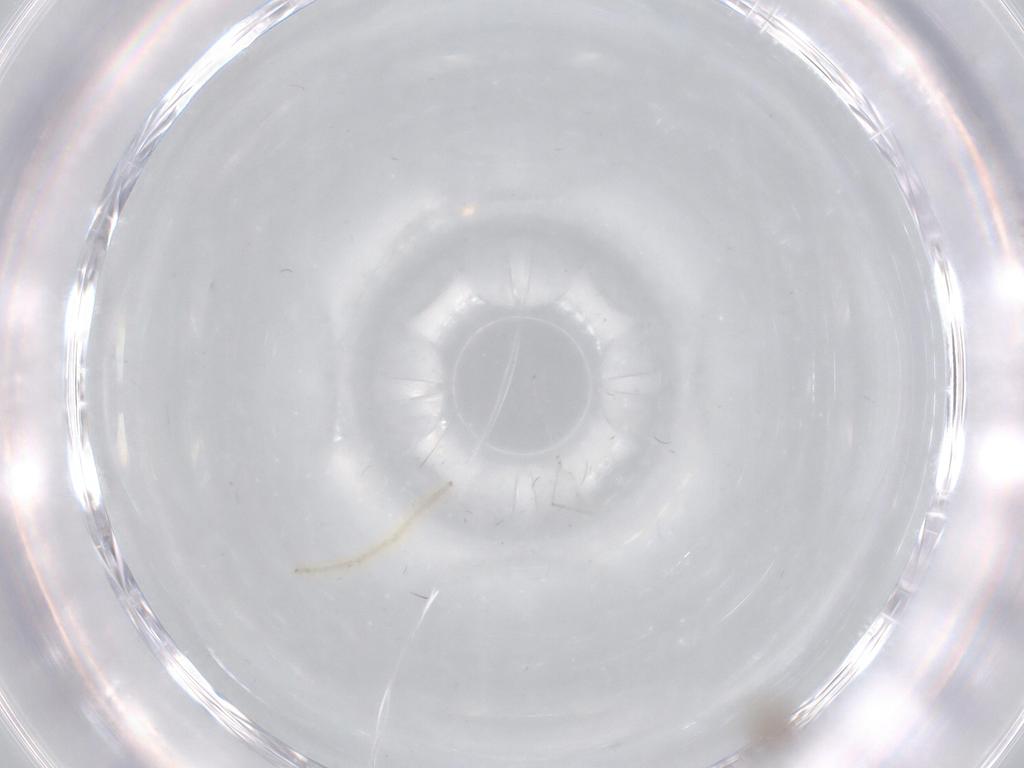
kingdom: Animalia
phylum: Arthropoda
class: Insecta
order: Diptera
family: Chironomidae
